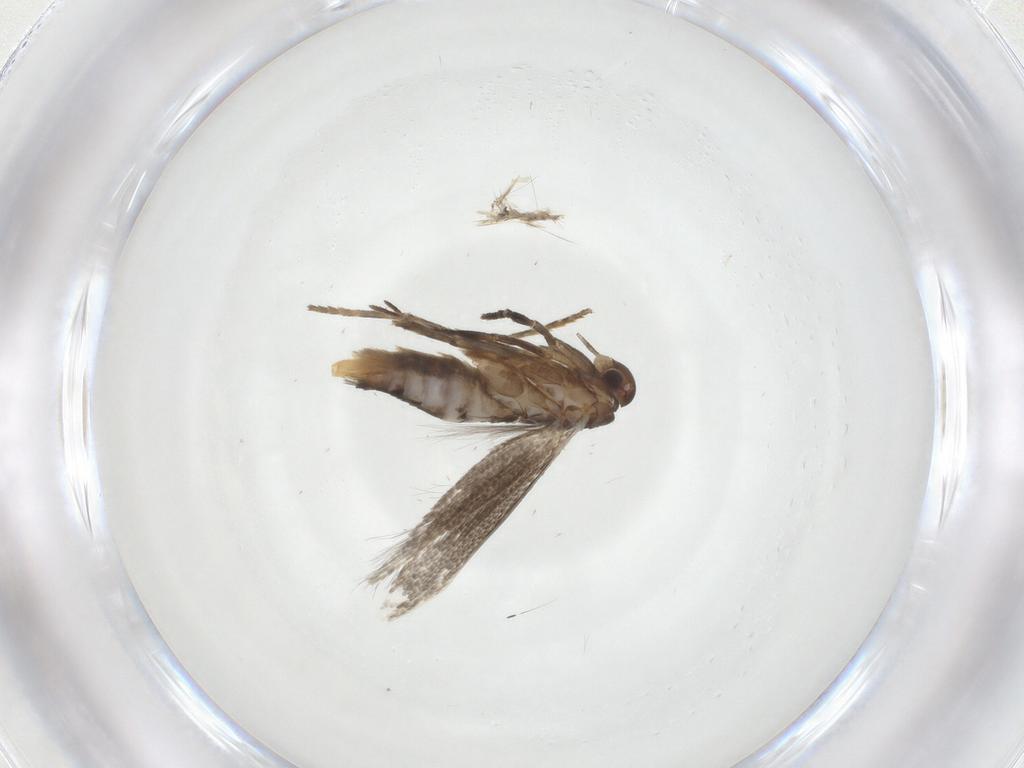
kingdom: Animalia
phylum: Arthropoda
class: Insecta
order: Lepidoptera
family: Elachistidae
